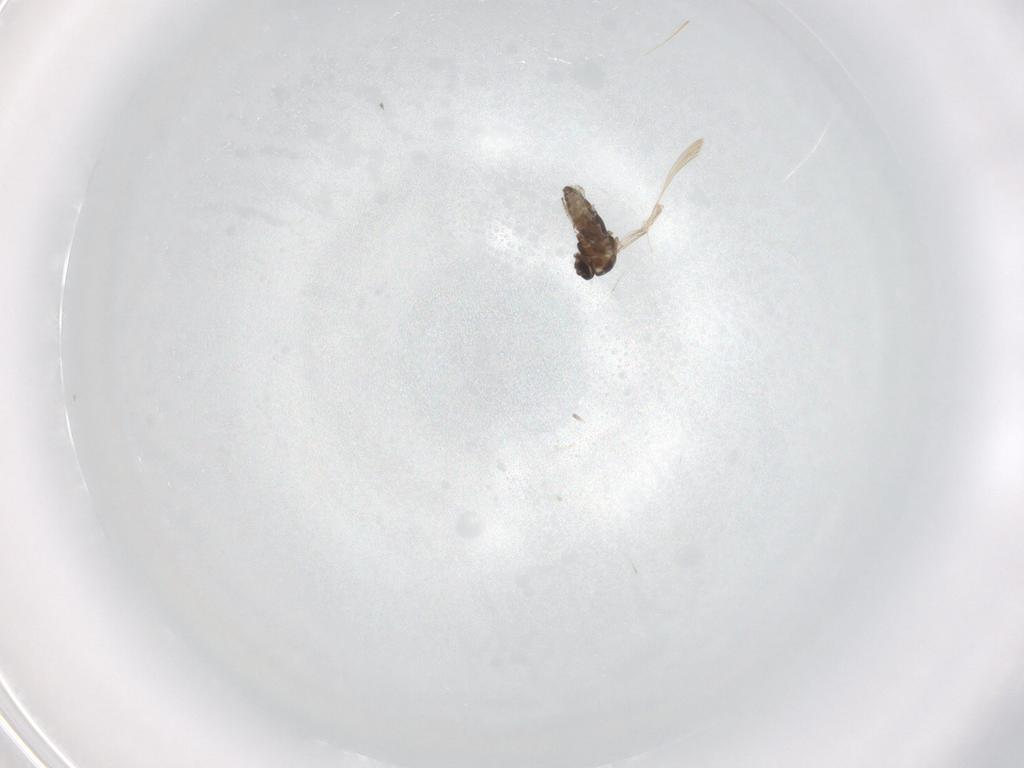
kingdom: Animalia
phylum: Arthropoda
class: Insecta
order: Diptera
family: Ceratopogonidae
